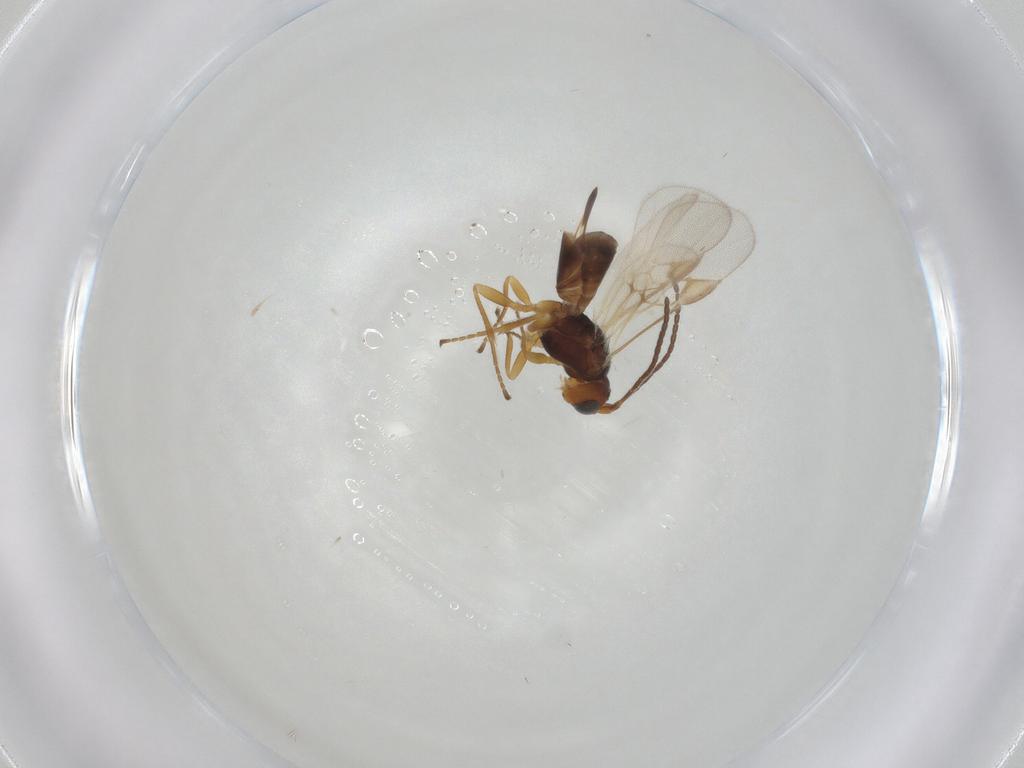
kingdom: Animalia
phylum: Arthropoda
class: Insecta
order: Hymenoptera
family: Braconidae
